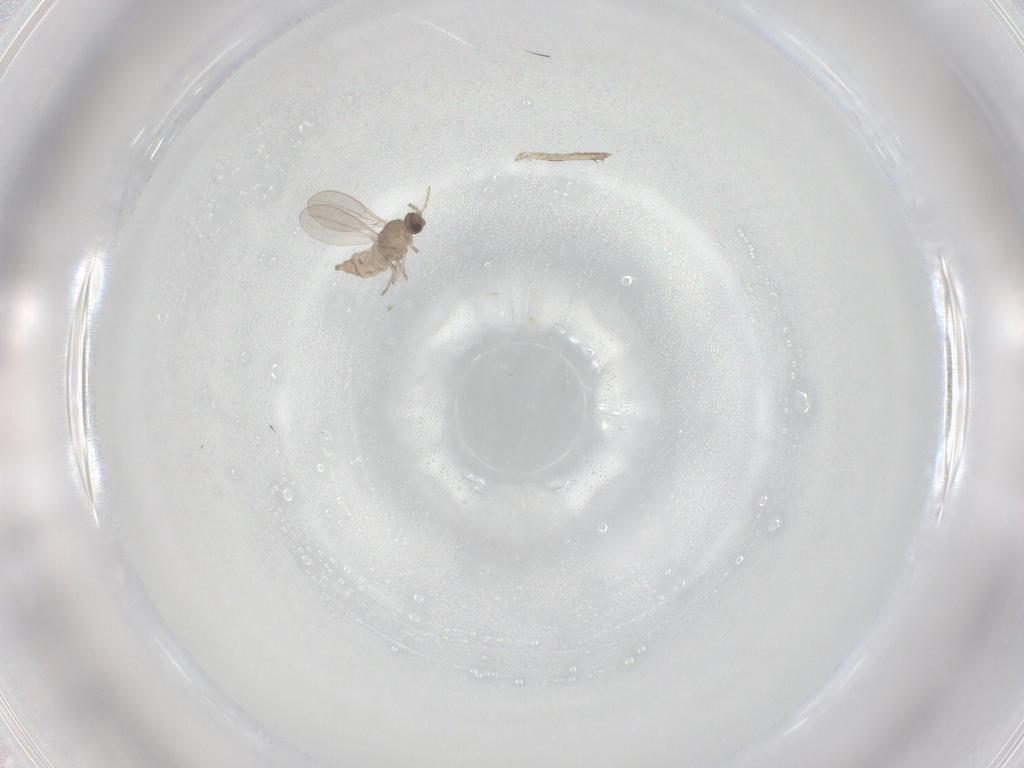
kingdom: Animalia
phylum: Arthropoda
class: Insecta
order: Diptera
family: Cecidomyiidae
